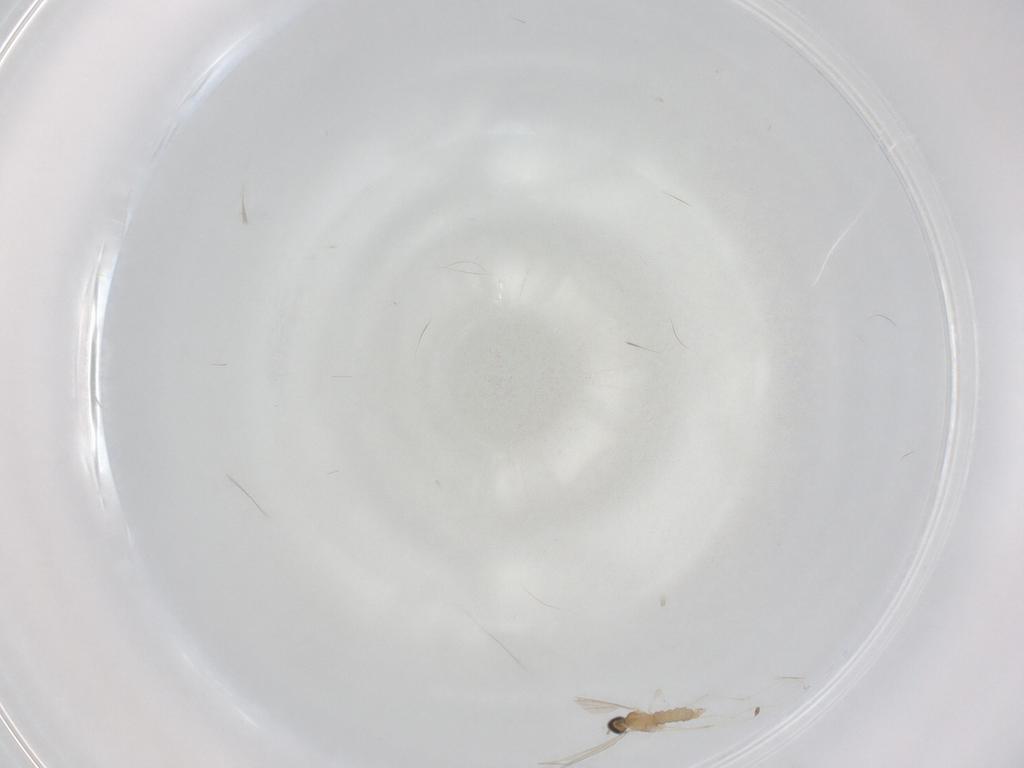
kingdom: Animalia
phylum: Arthropoda
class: Insecta
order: Diptera
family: Cecidomyiidae
